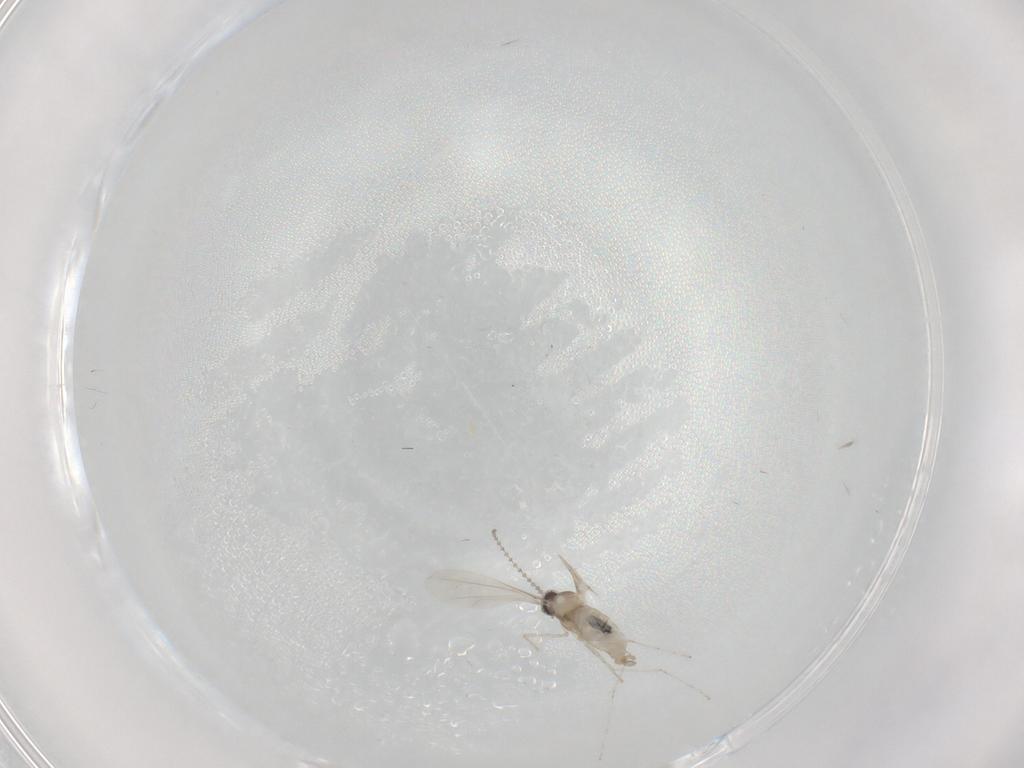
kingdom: Animalia
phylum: Arthropoda
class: Insecta
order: Diptera
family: Cecidomyiidae
